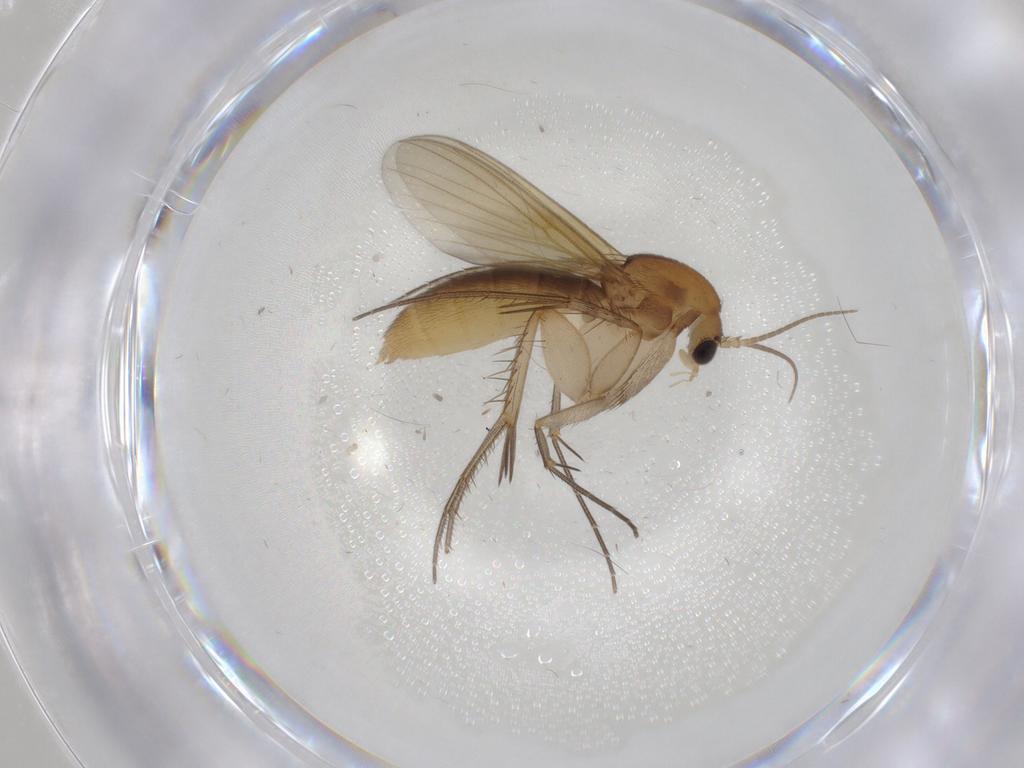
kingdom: Animalia
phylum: Arthropoda
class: Insecta
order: Diptera
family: Mycetophilidae
